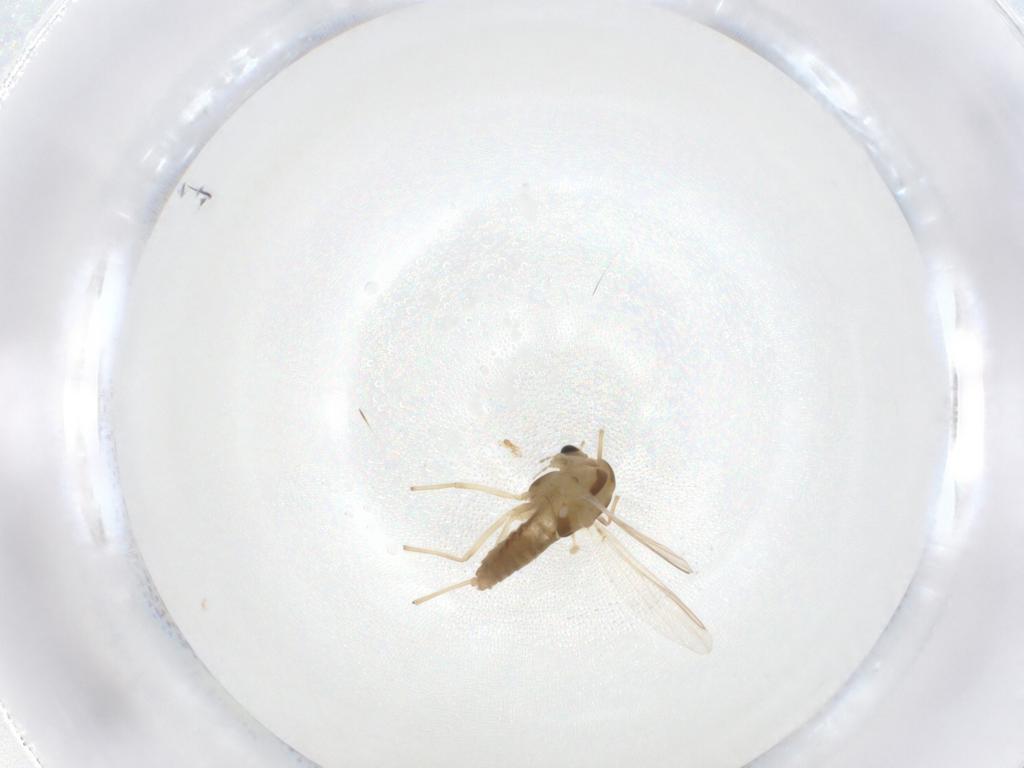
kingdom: Animalia
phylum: Arthropoda
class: Insecta
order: Diptera
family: Chironomidae
